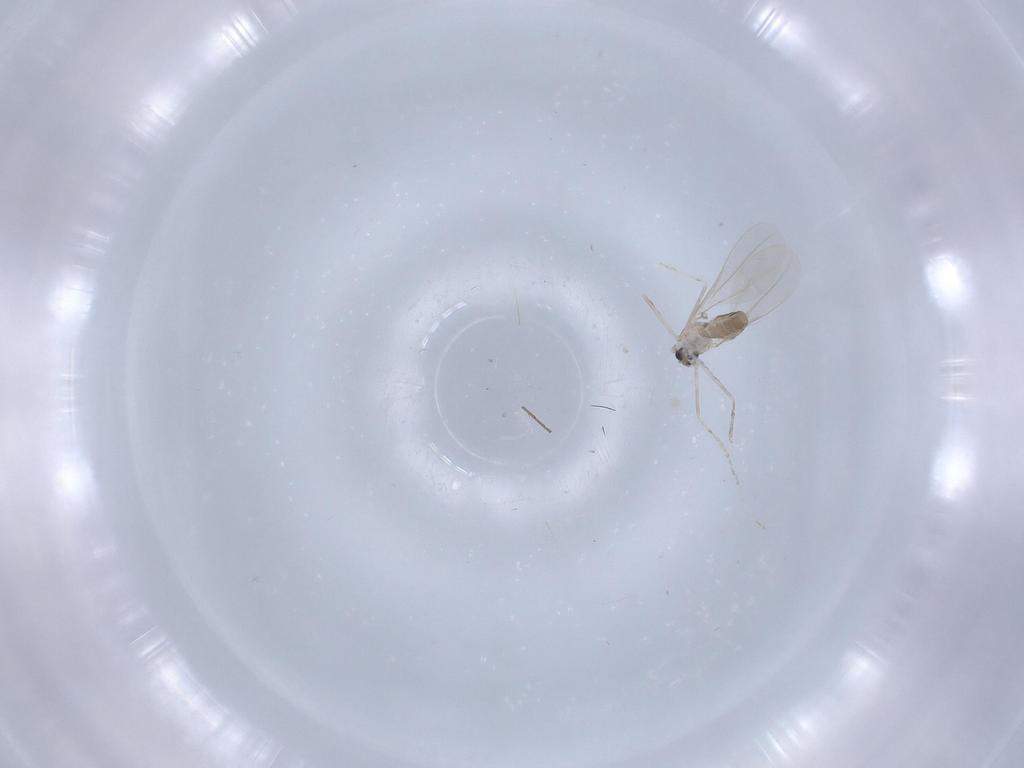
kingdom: Animalia
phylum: Arthropoda
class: Insecta
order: Diptera
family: Cecidomyiidae
